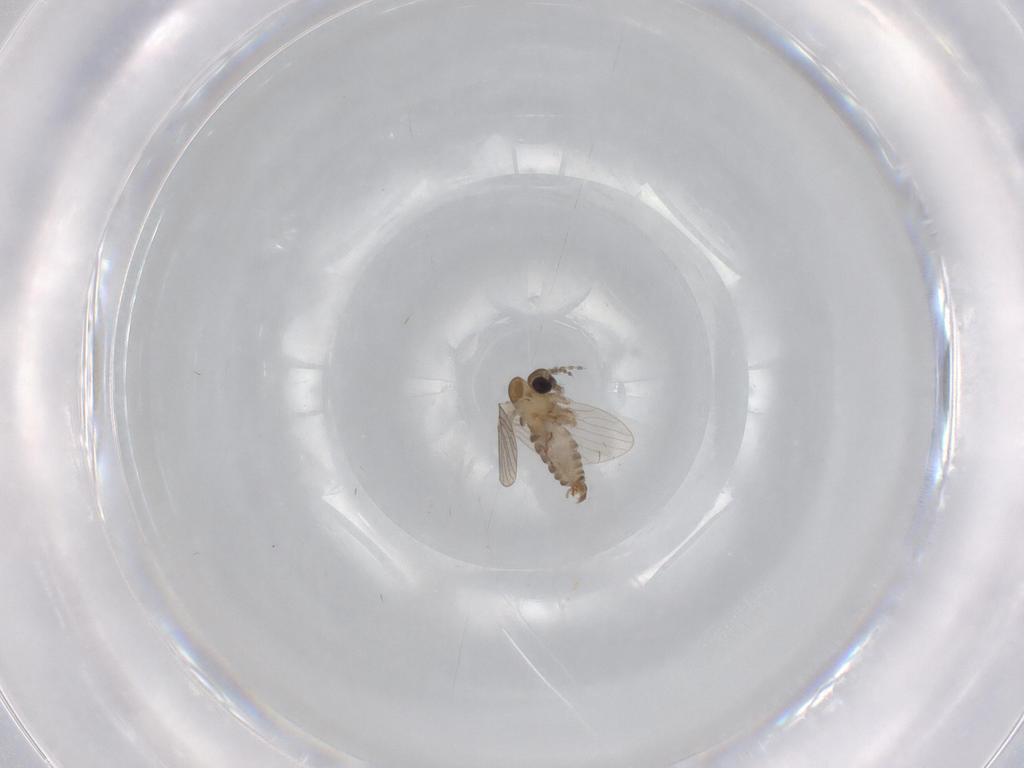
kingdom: Animalia
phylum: Arthropoda
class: Insecta
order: Diptera
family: Psychodidae
